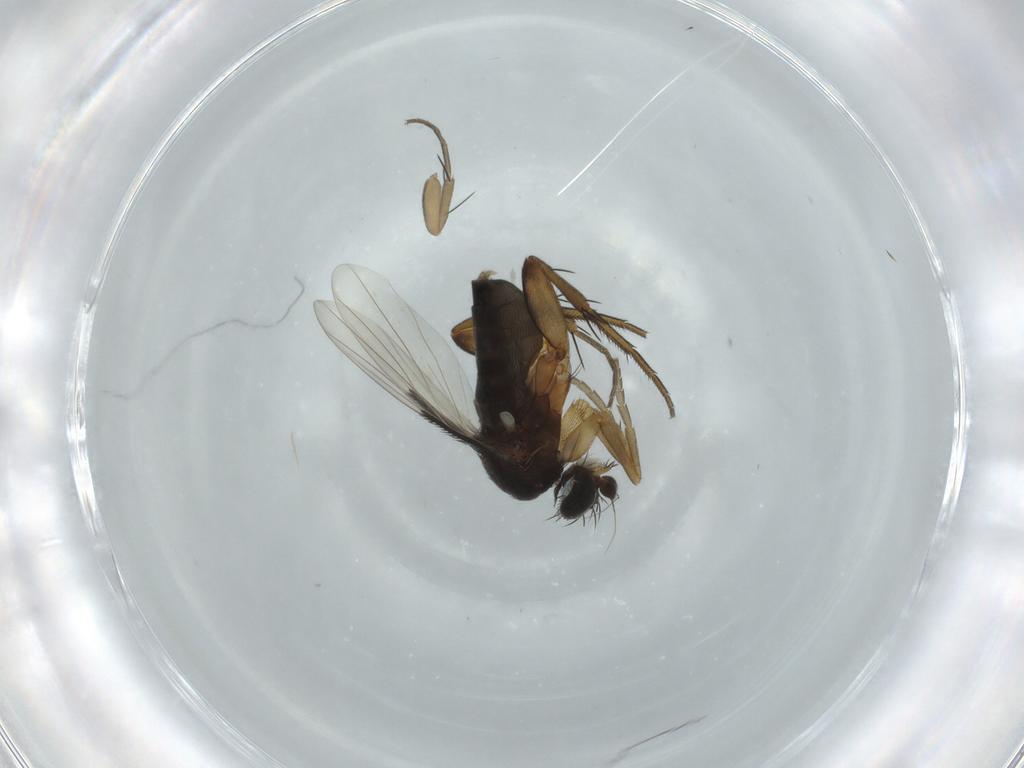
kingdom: Animalia
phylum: Arthropoda
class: Insecta
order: Diptera
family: Phoridae
